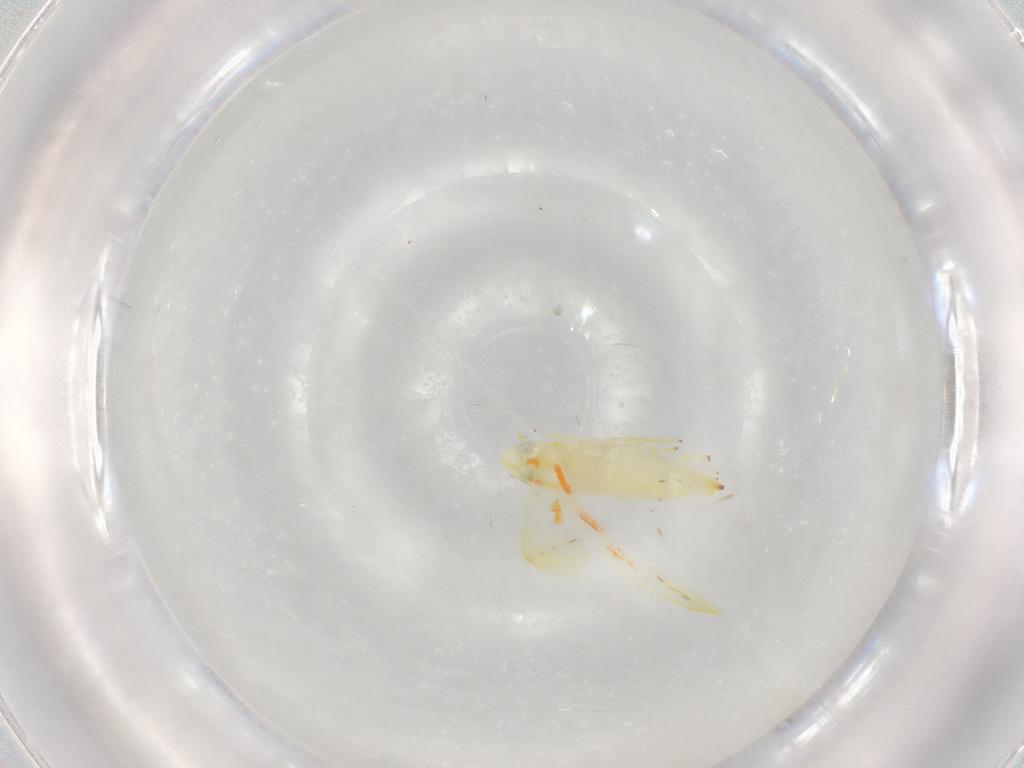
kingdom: Animalia
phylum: Arthropoda
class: Insecta
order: Hemiptera
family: Cicadellidae
